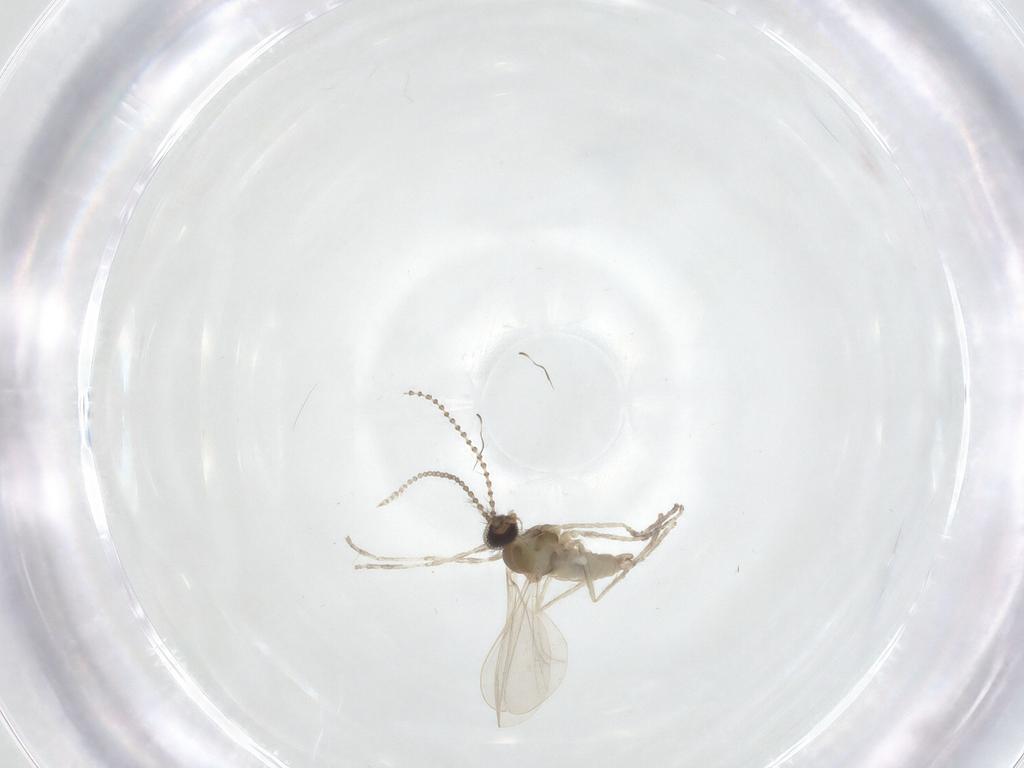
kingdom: Animalia
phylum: Arthropoda
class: Insecta
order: Diptera
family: Cecidomyiidae
